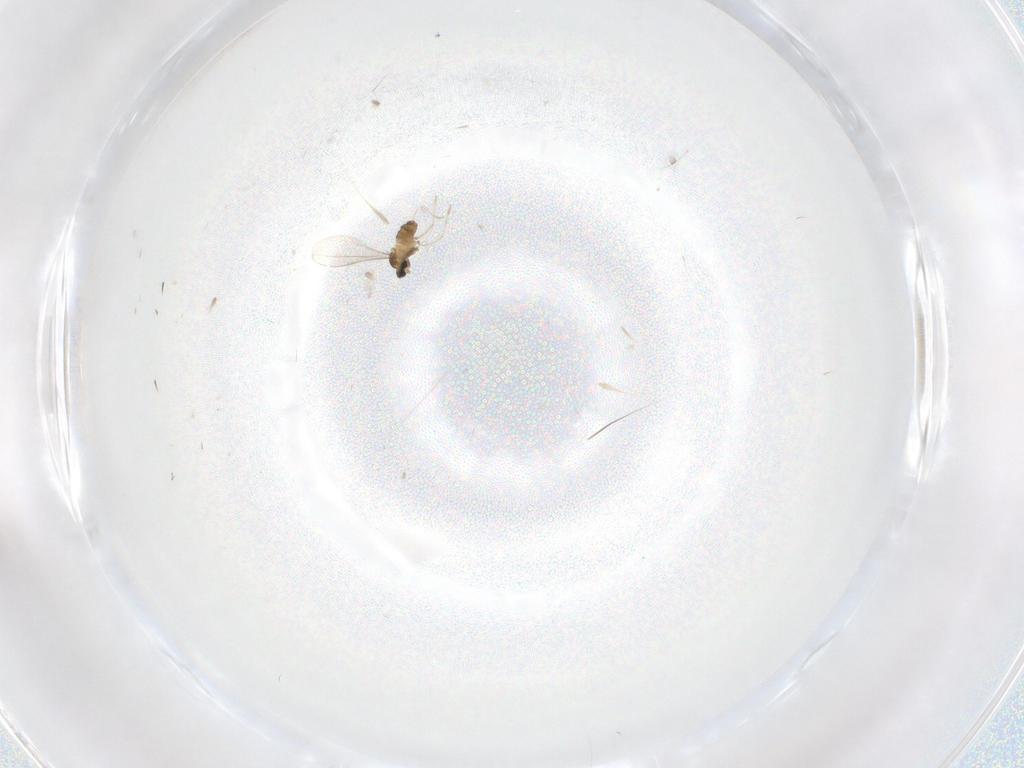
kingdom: Animalia
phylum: Arthropoda
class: Insecta
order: Diptera
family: Cecidomyiidae
